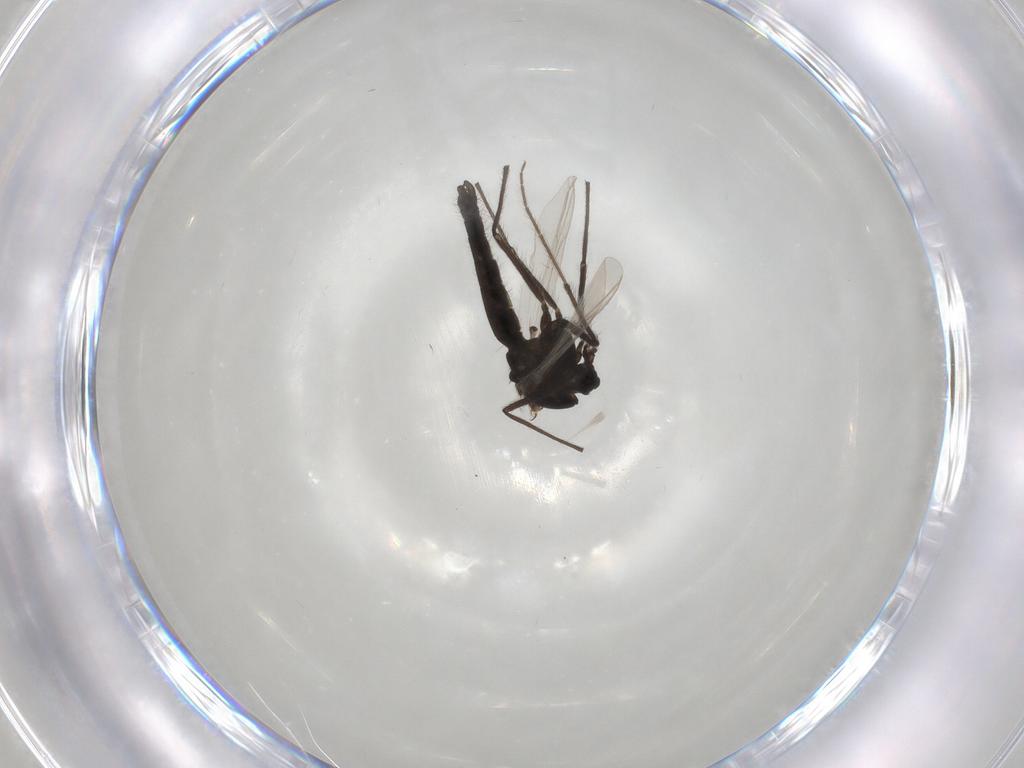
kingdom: Animalia
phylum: Arthropoda
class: Insecta
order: Diptera
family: Chironomidae
